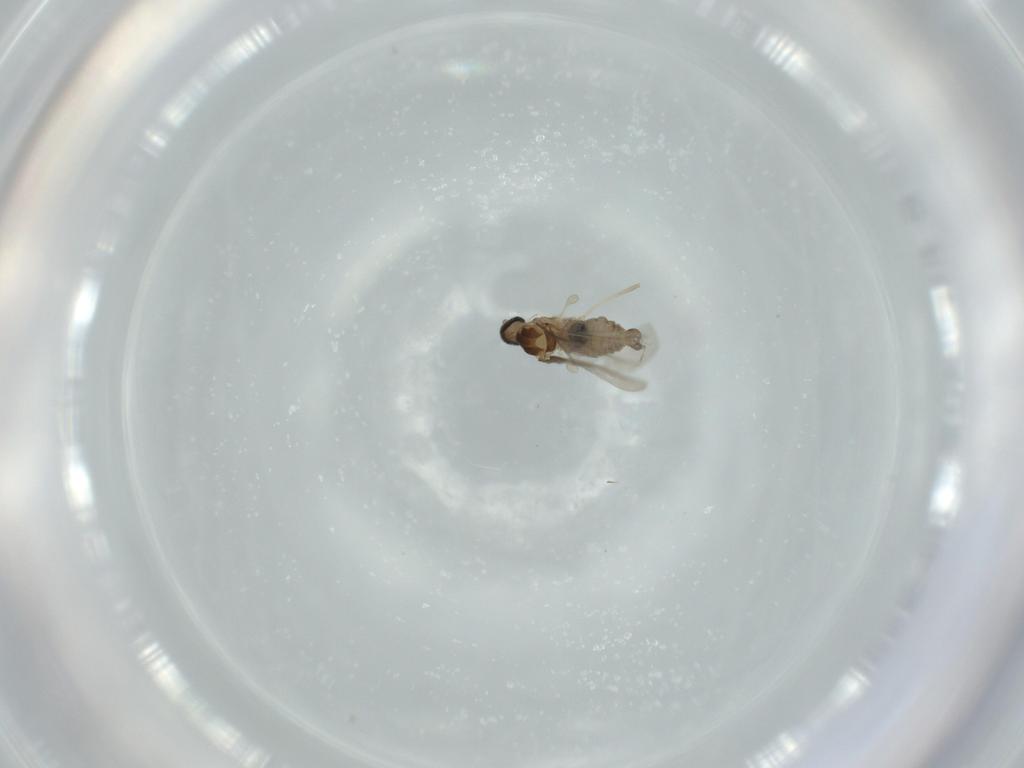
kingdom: Animalia
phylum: Arthropoda
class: Insecta
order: Diptera
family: Cecidomyiidae
